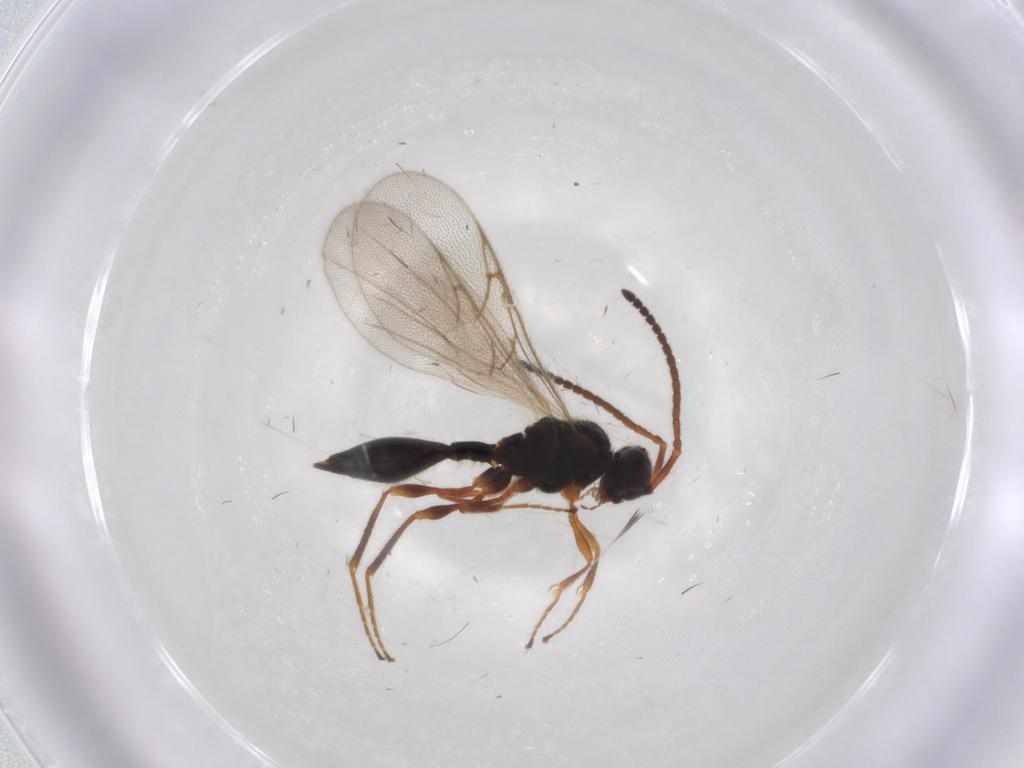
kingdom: Animalia
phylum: Arthropoda
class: Insecta
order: Hymenoptera
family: Diapriidae
